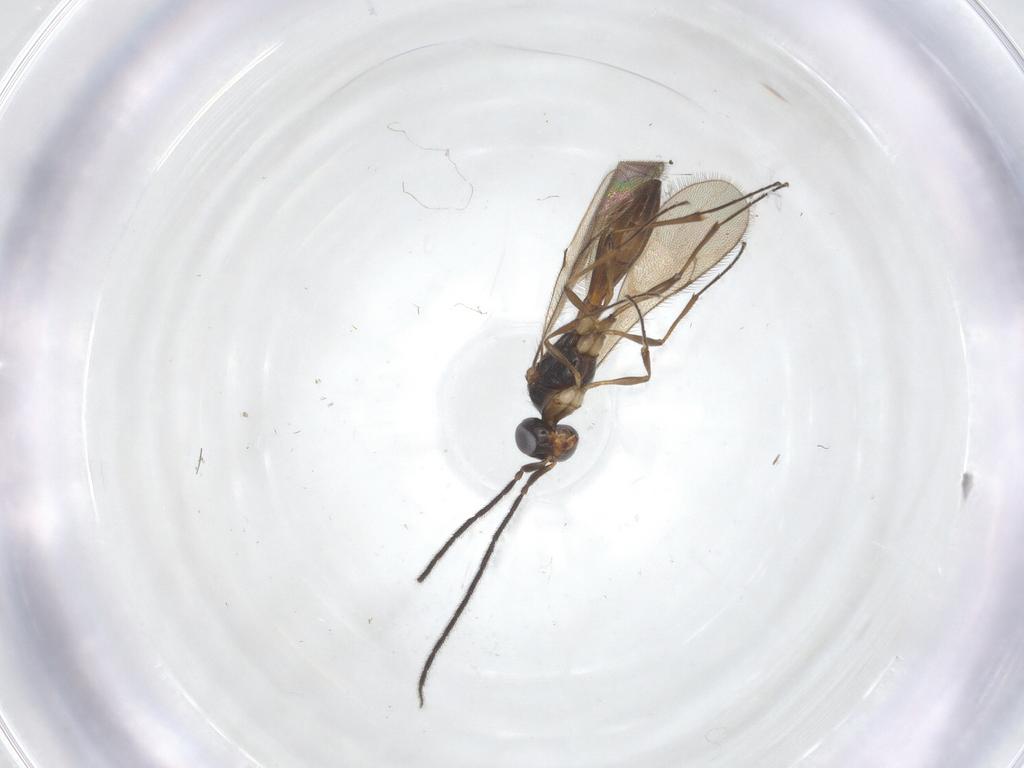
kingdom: Animalia
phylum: Arthropoda
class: Insecta
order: Hymenoptera
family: Scelionidae
